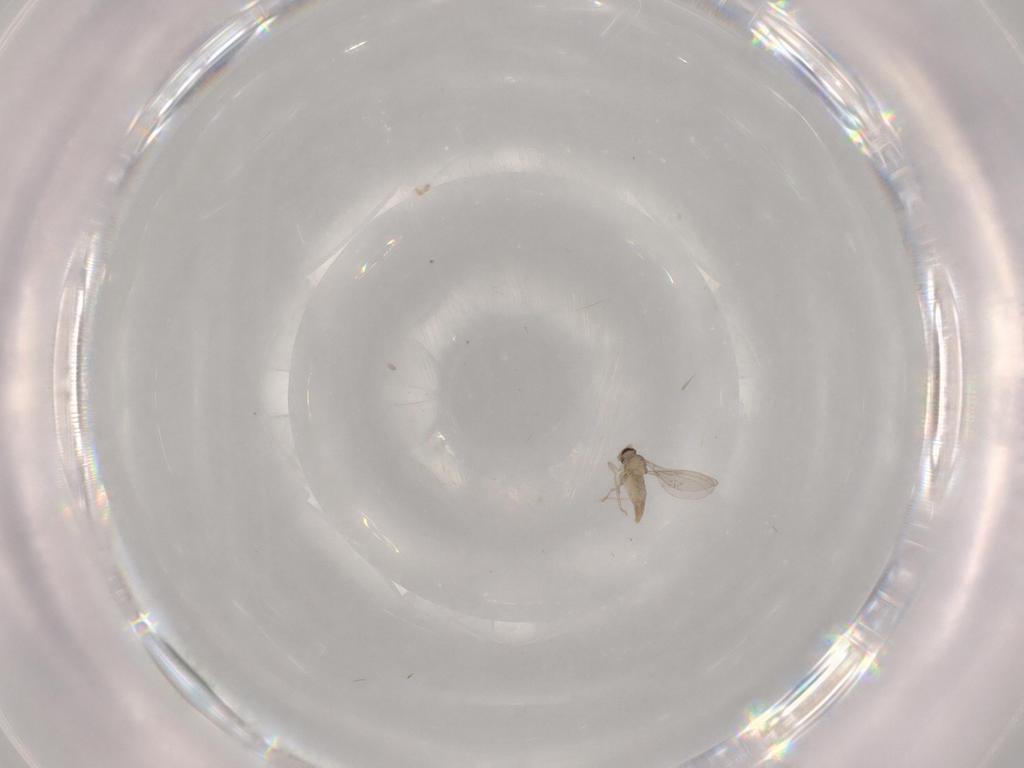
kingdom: Animalia
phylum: Arthropoda
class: Insecta
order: Diptera
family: Cecidomyiidae
